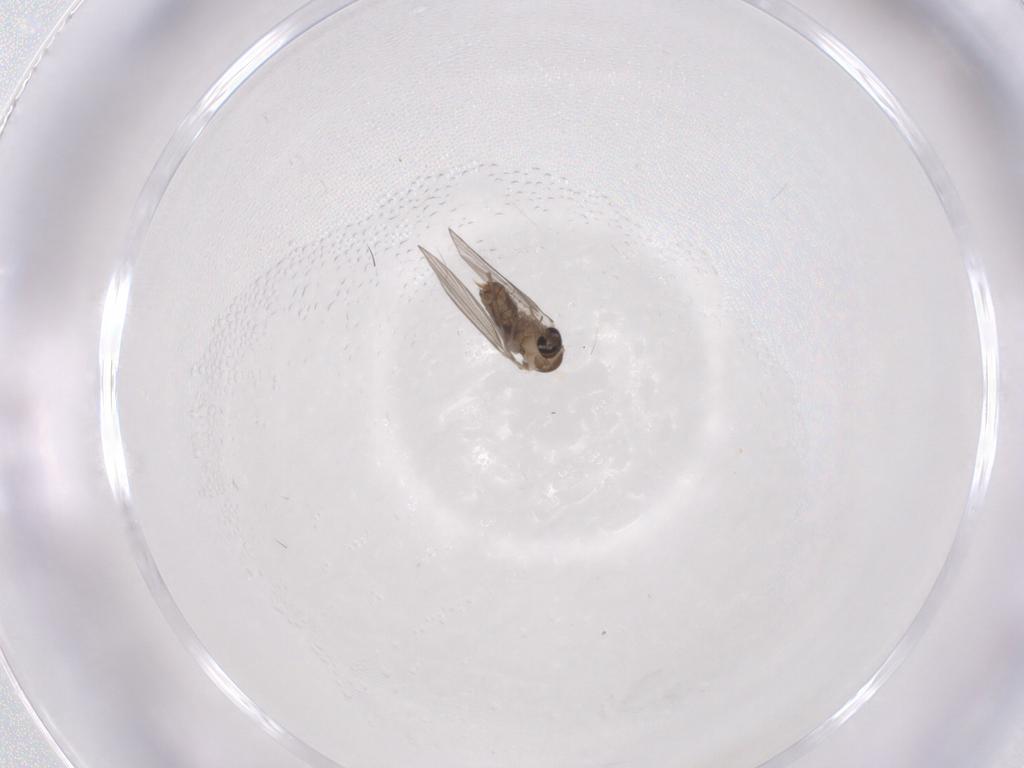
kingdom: Animalia
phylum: Arthropoda
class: Insecta
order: Diptera
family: Psychodidae
